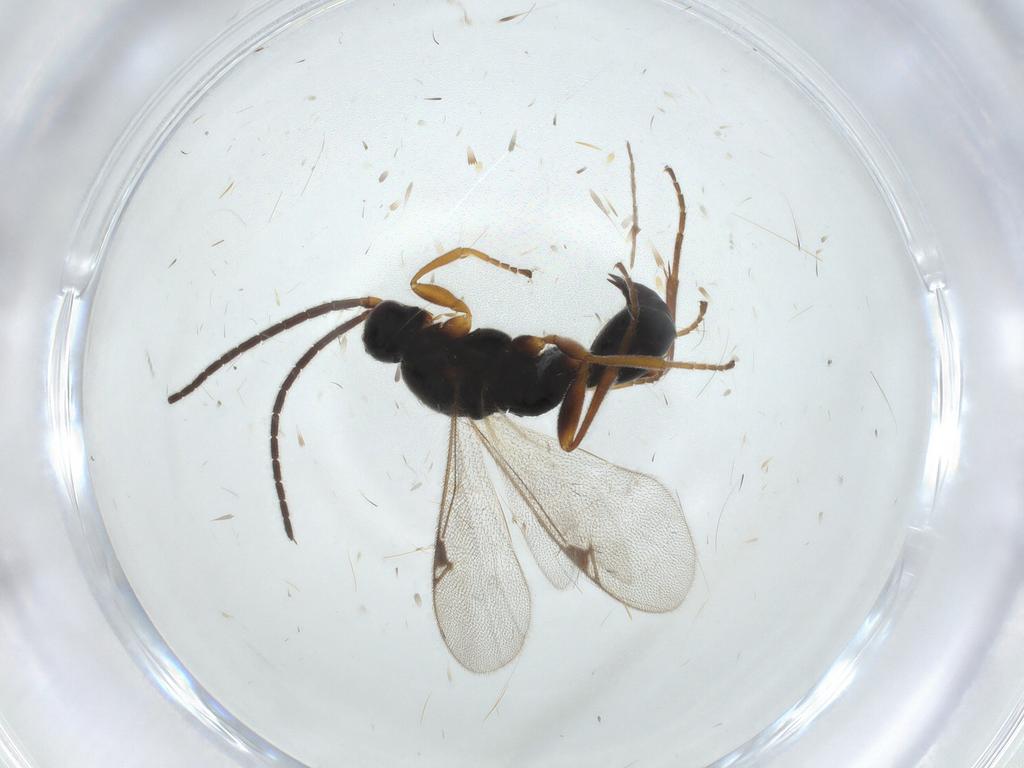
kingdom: Animalia
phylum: Arthropoda
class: Insecta
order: Hymenoptera
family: Proctotrupidae
